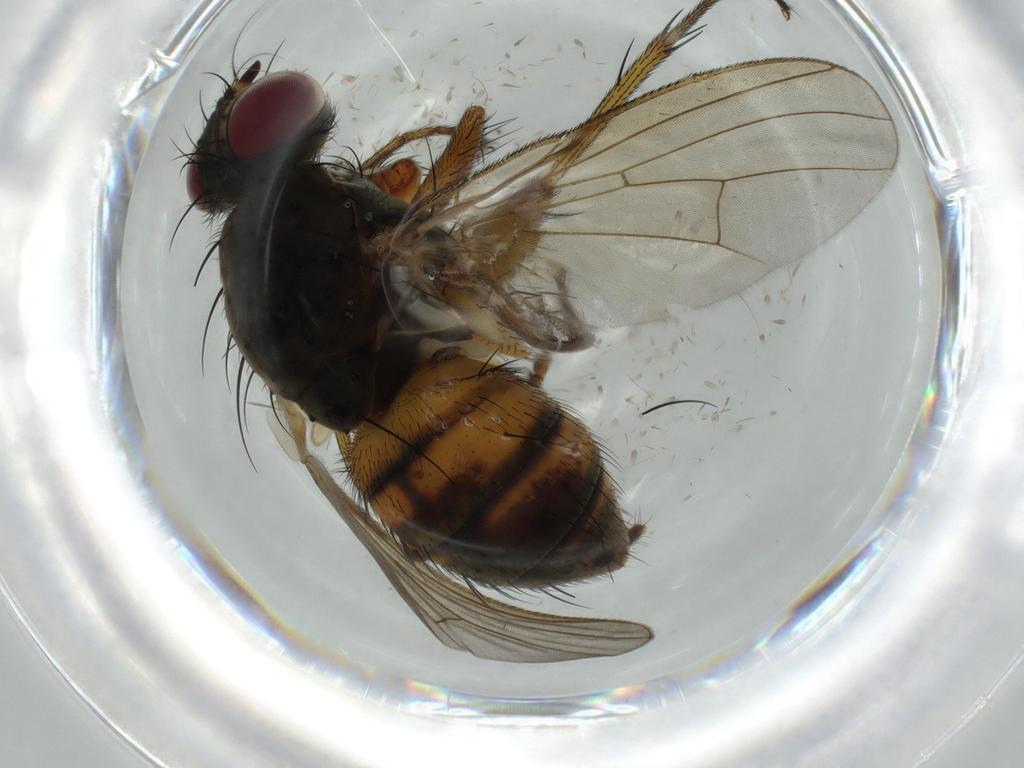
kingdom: Animalia
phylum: Arthropoda
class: Insecta
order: Diptera
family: Muscidae
